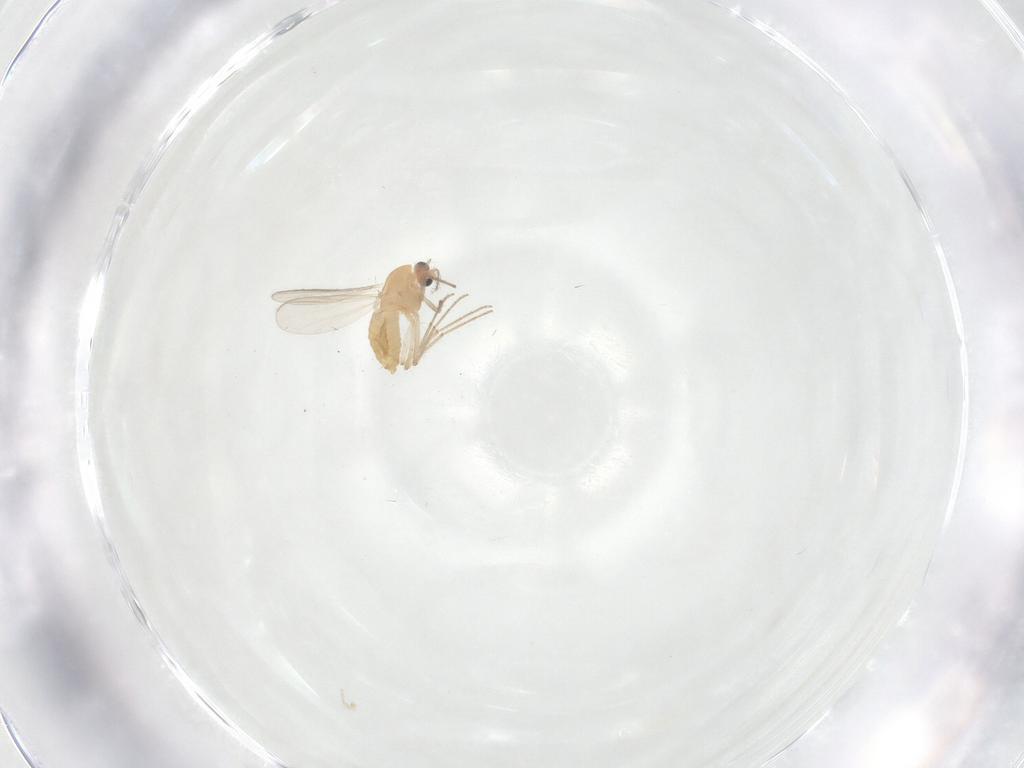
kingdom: Animalia
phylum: Arthropoda
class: Insecta
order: Diptera
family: Chironomidae
